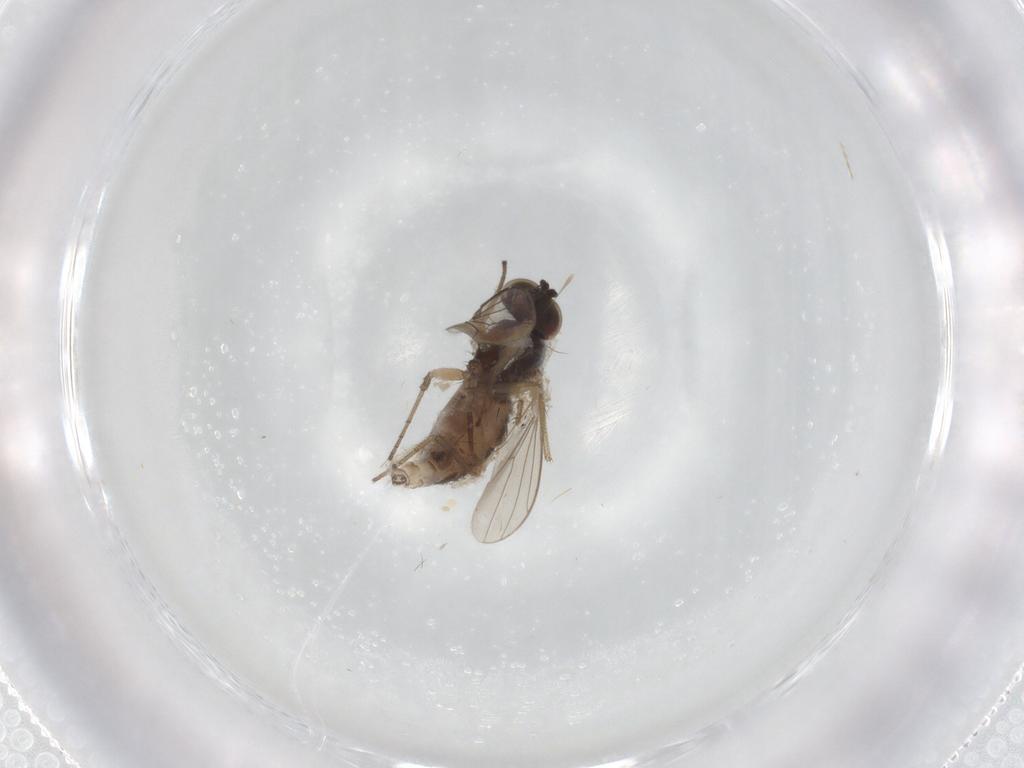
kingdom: Animalia
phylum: Arthropoda
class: Insecta
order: Diptera
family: Phoridae
